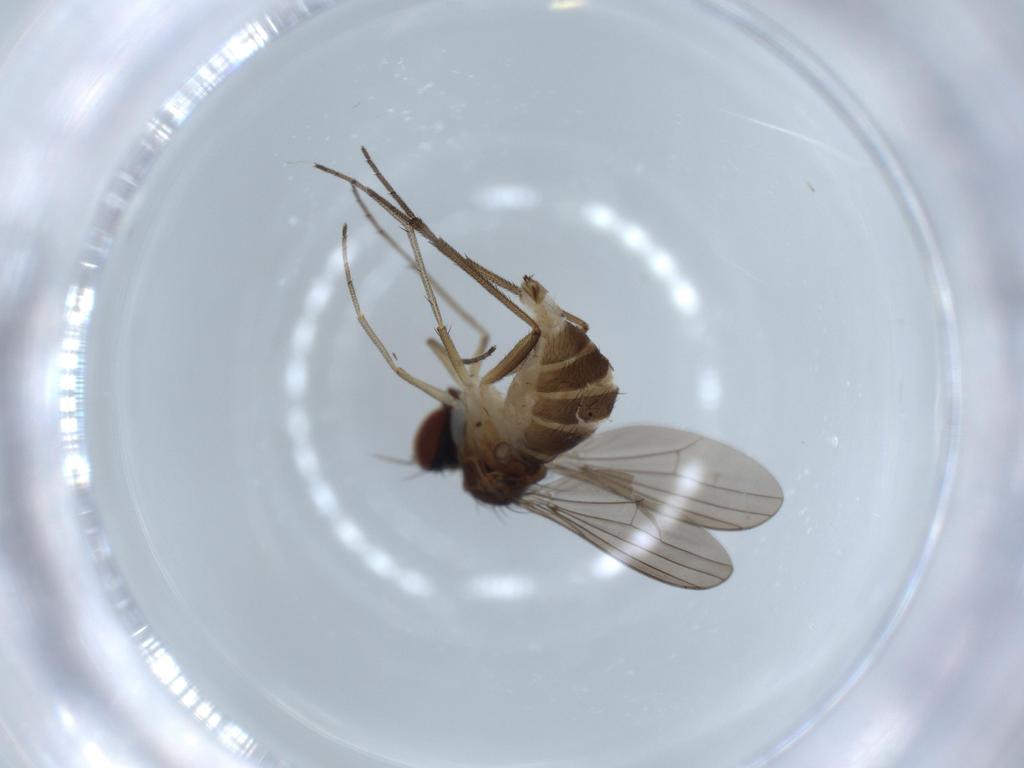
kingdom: Animalia
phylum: Arthropoda
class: Insecta
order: Diptera
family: Dolichopodidae
